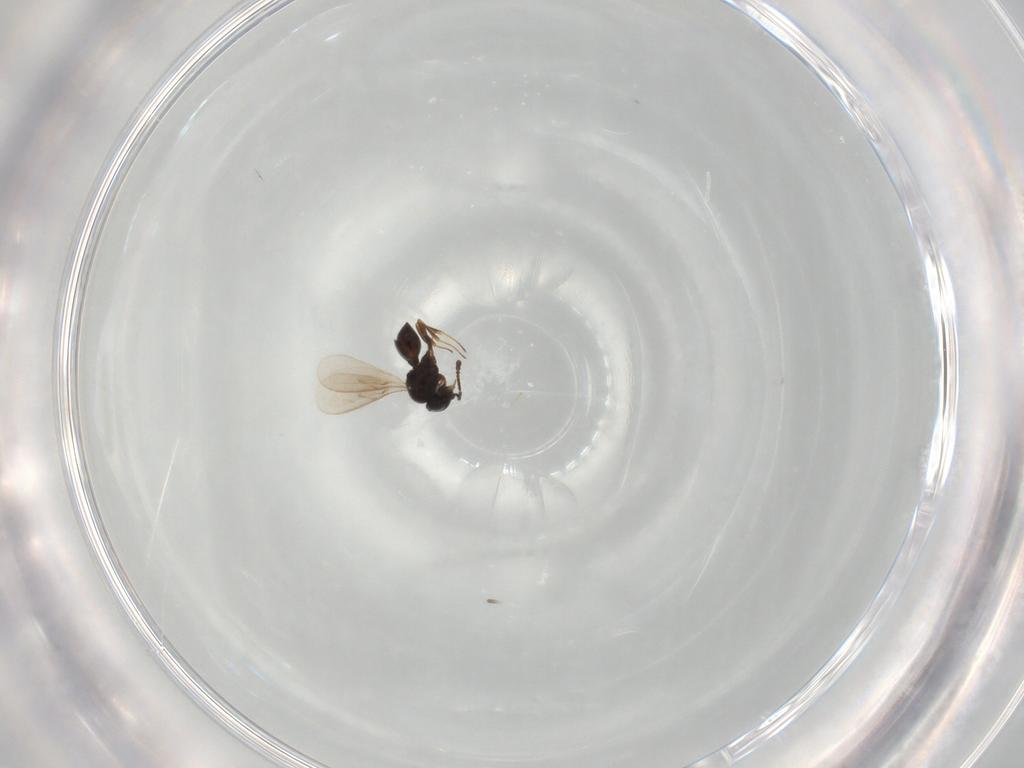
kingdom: Animalia
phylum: Arthropoda
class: Insecta
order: Hymenoptera
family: Scelionidae
